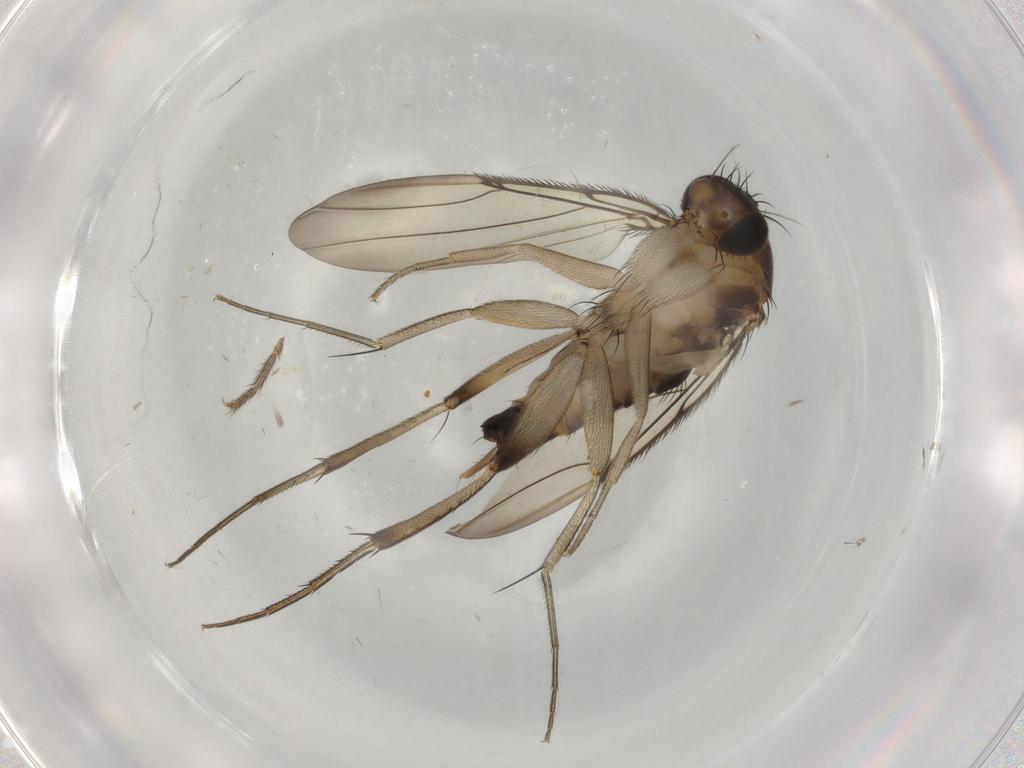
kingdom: Animalia
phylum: Arthropoda
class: Insecta
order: Diptera
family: Phoridae
